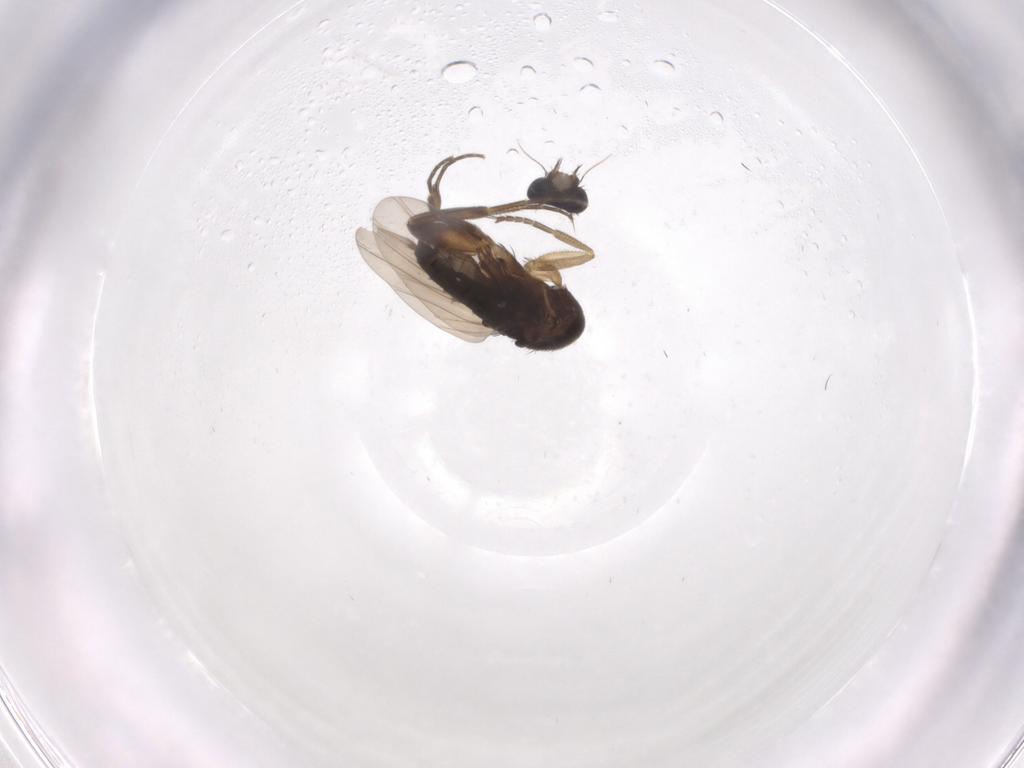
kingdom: Animalia
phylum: Arthropoda
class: Insecta
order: Diptera
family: Phoridae
